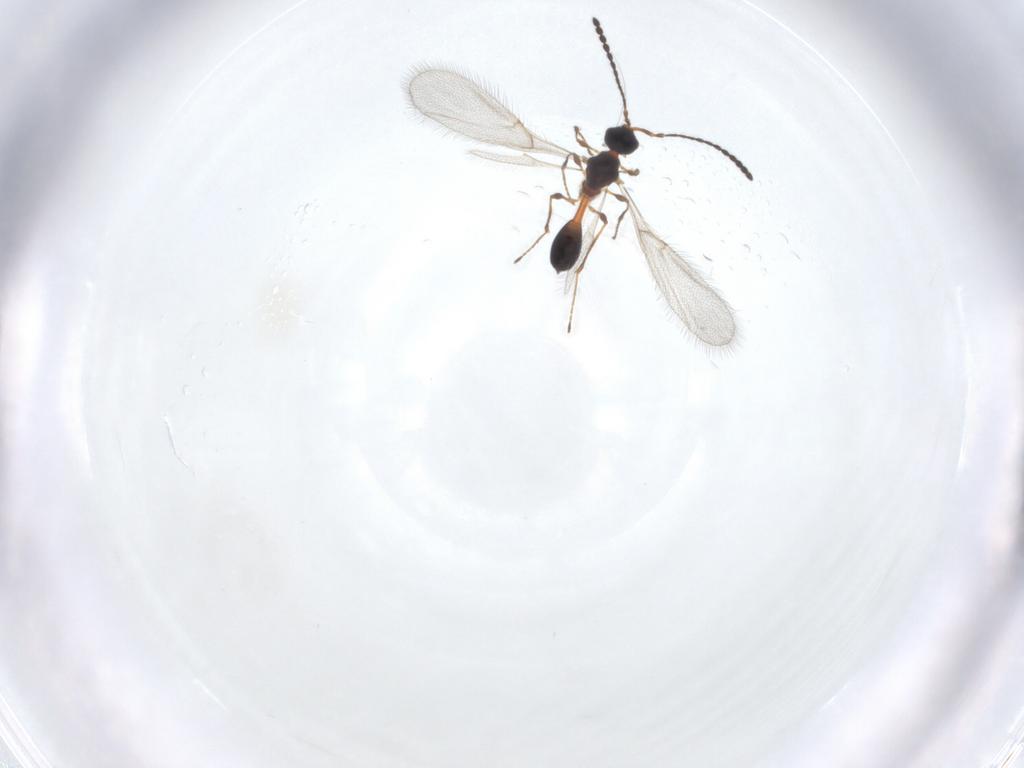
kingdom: Animalia
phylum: Arthropoda
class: Insecta
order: Hymenoptera
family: Diapriidae
